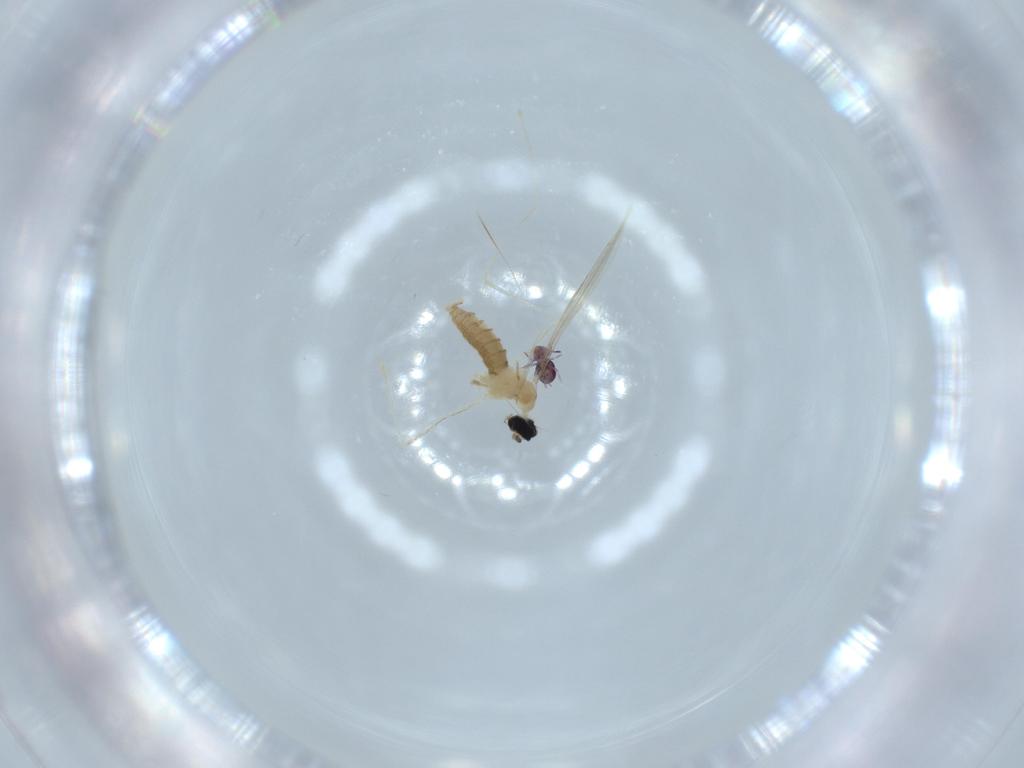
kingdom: Animalia
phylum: Arthropoda
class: Insecta
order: Diptera
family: Cecidomyiidae
